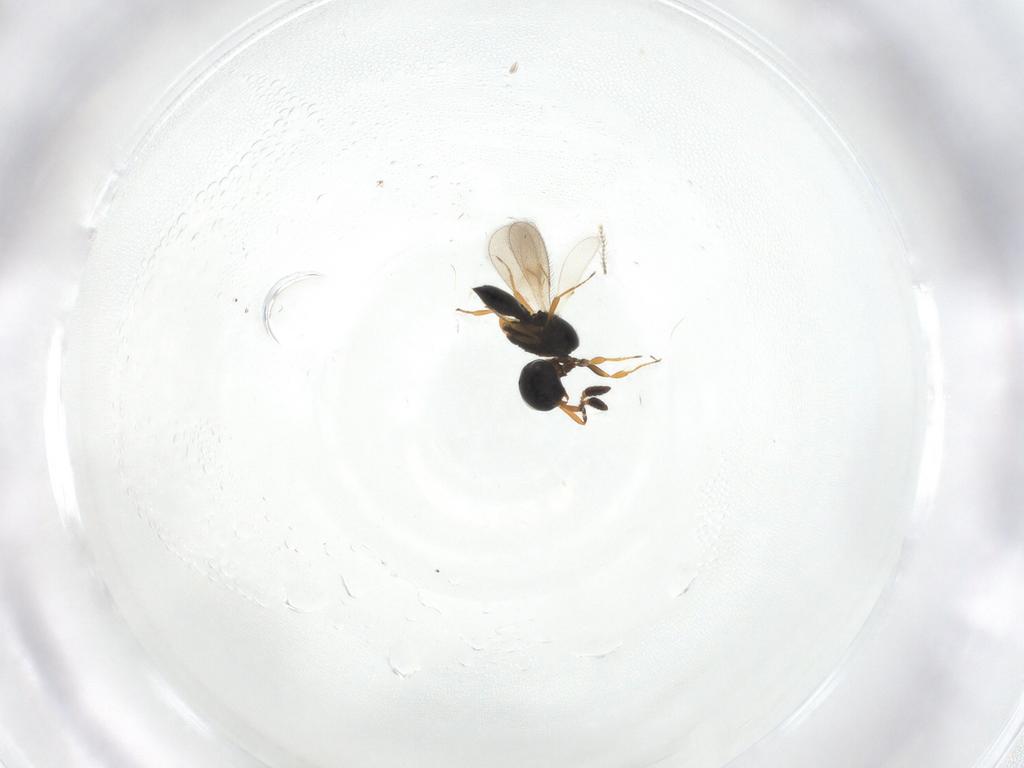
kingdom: Animalia
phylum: Arthropoda
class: Insecta
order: Hymenoptera
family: Scelionidae
